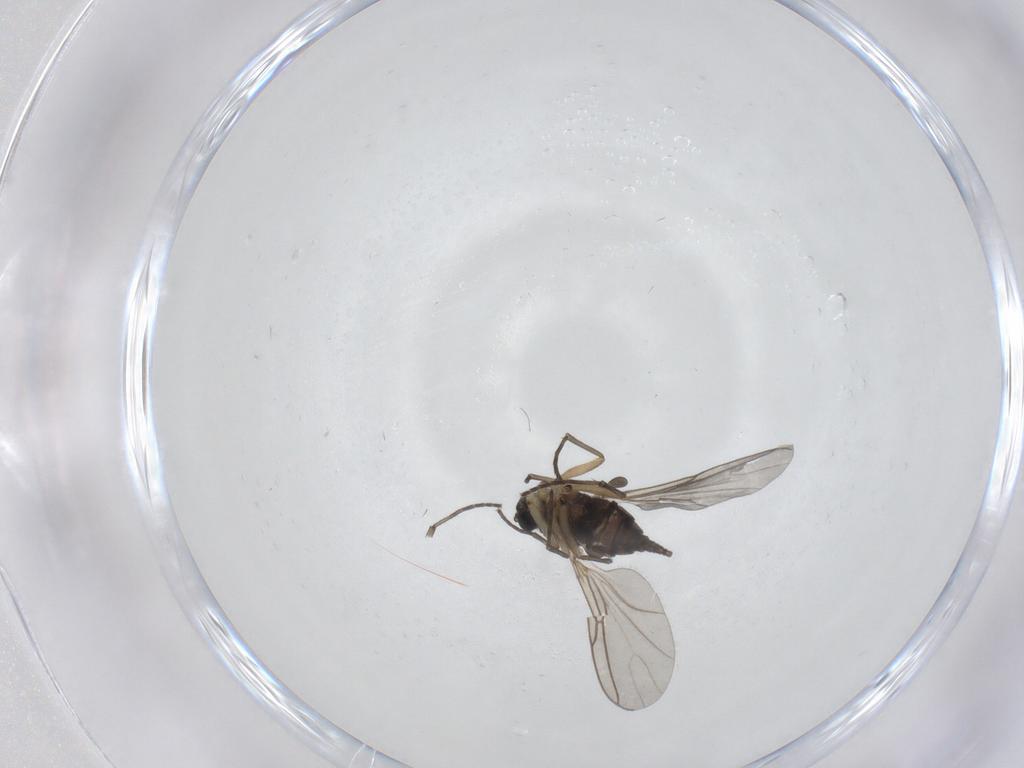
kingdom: Animalia
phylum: Arthropoda
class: Insecta
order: Diptera
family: Sciaridae
